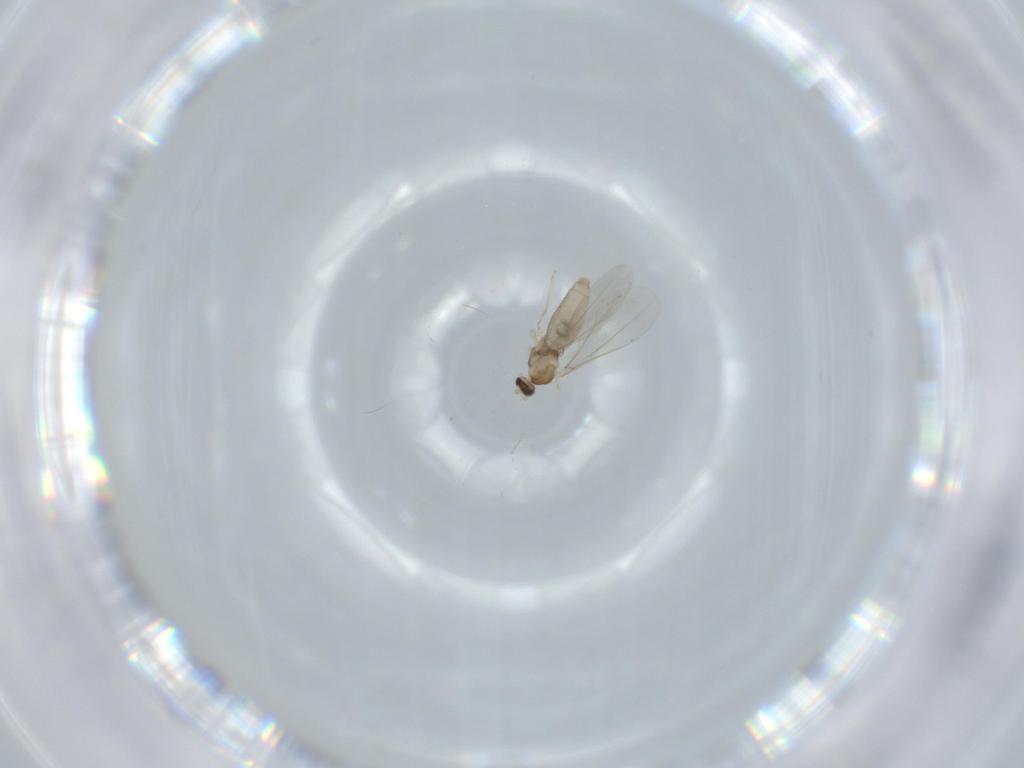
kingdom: Animalia
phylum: Arthropoda
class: Insecta
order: Diptera
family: Cecidomyiidae
